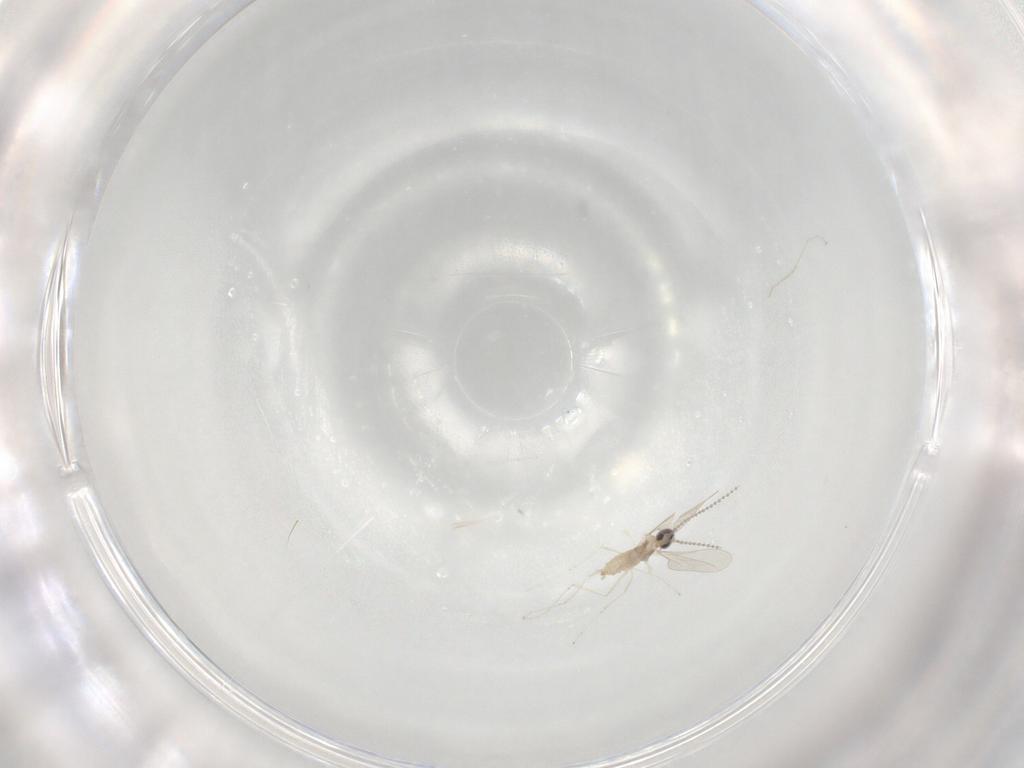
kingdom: Animalia
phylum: Arthropoda
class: Insecta
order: Diptera
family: Cecidomyiidae
